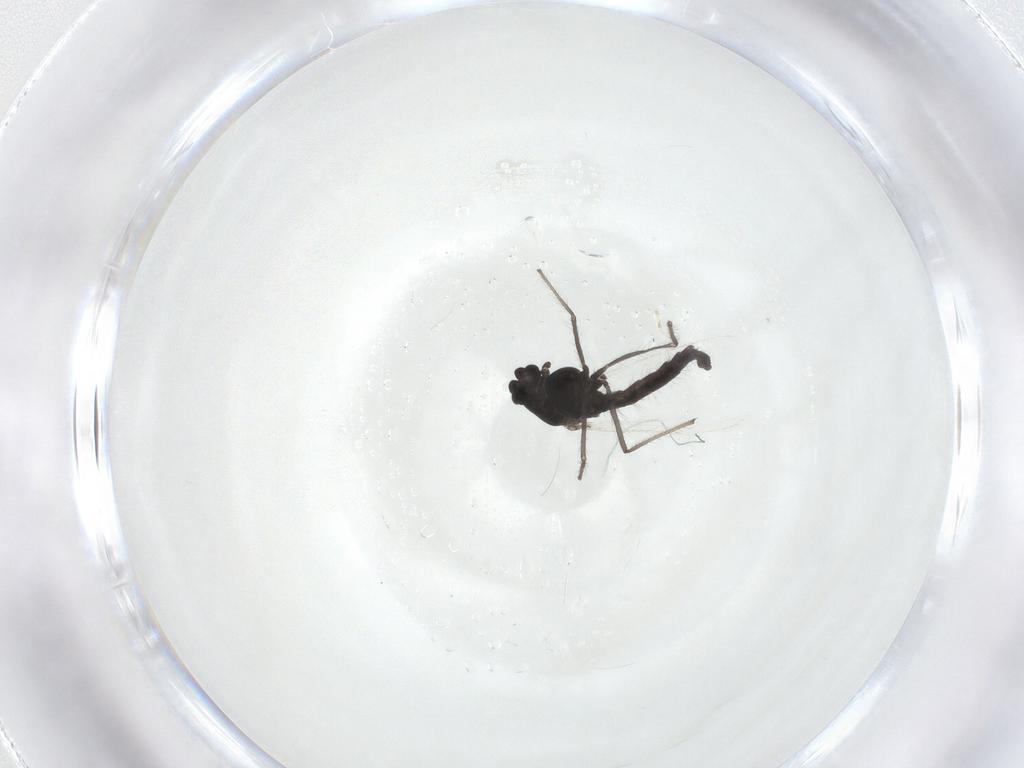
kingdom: Animalia
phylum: Arthropoda
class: Insecta
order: Diptera
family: Chironomidae
